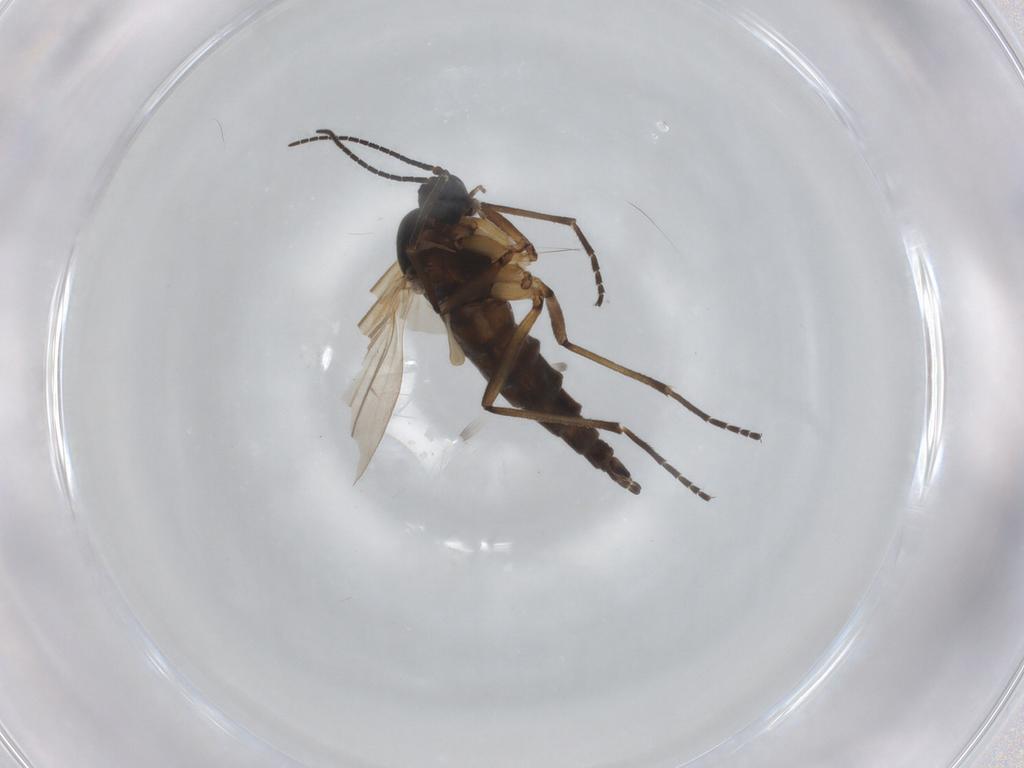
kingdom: Animalia
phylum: Arthropoda
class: Insecta
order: Diptera
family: Sciaridae
